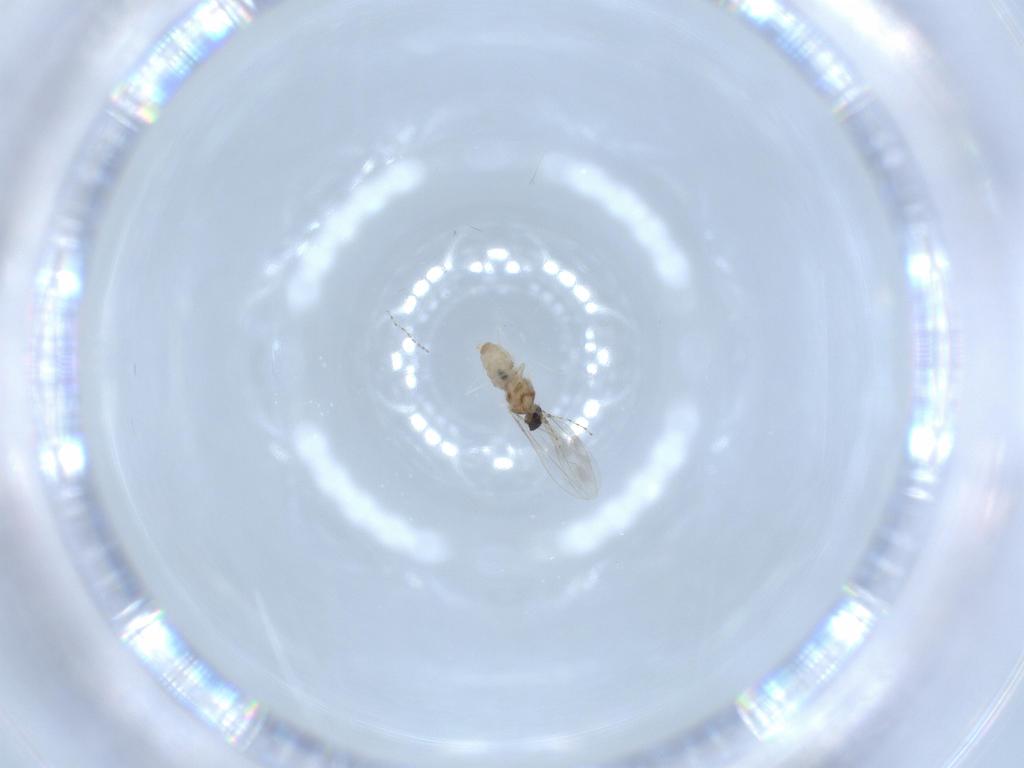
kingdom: Animalia
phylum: Arthropoda
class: Insecta
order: Diptera
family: Cecidomyiidae
